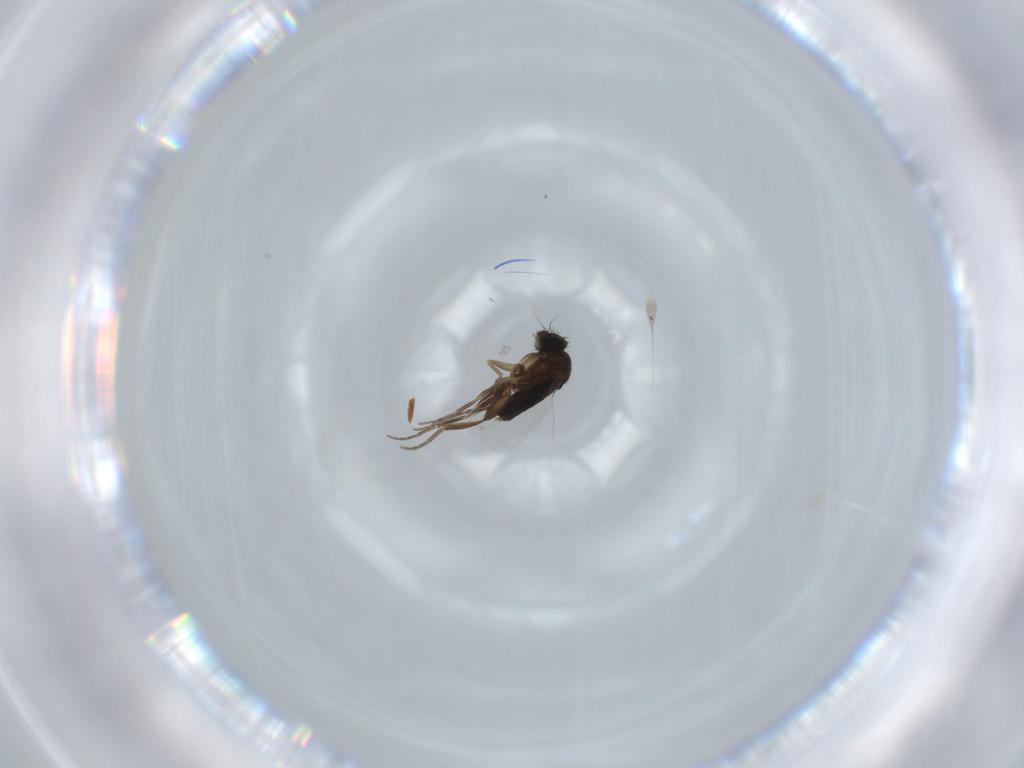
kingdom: Animalia
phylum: Arthropoda
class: Insecta
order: Diptera
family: Phoridae
